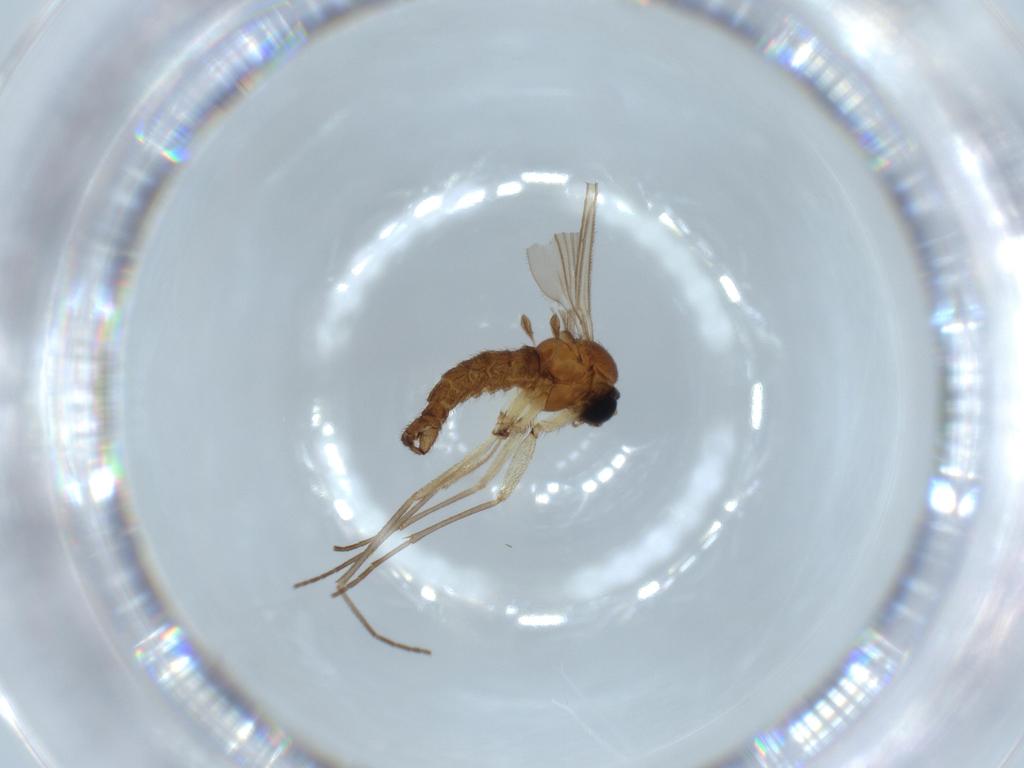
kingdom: Animalia
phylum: Arthropoda
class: Insecta
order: Diptera
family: Sciaridae
